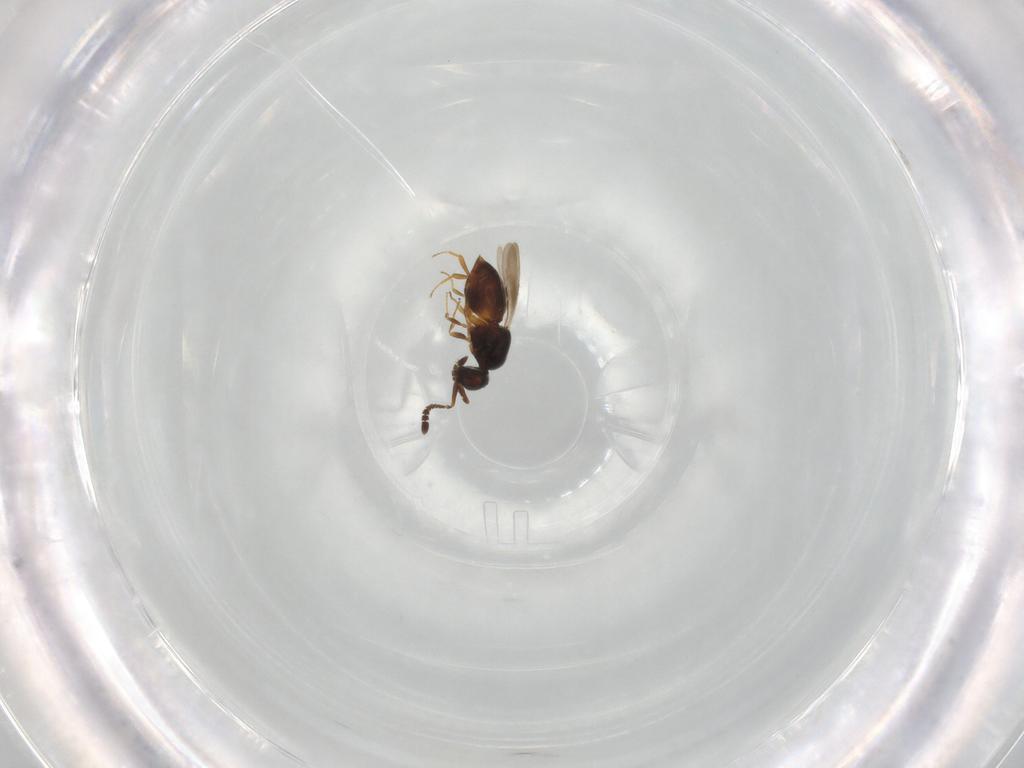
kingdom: Animalia
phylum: Arthropoda
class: Insecta
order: Hymenoptera
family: Ceraphronidae
